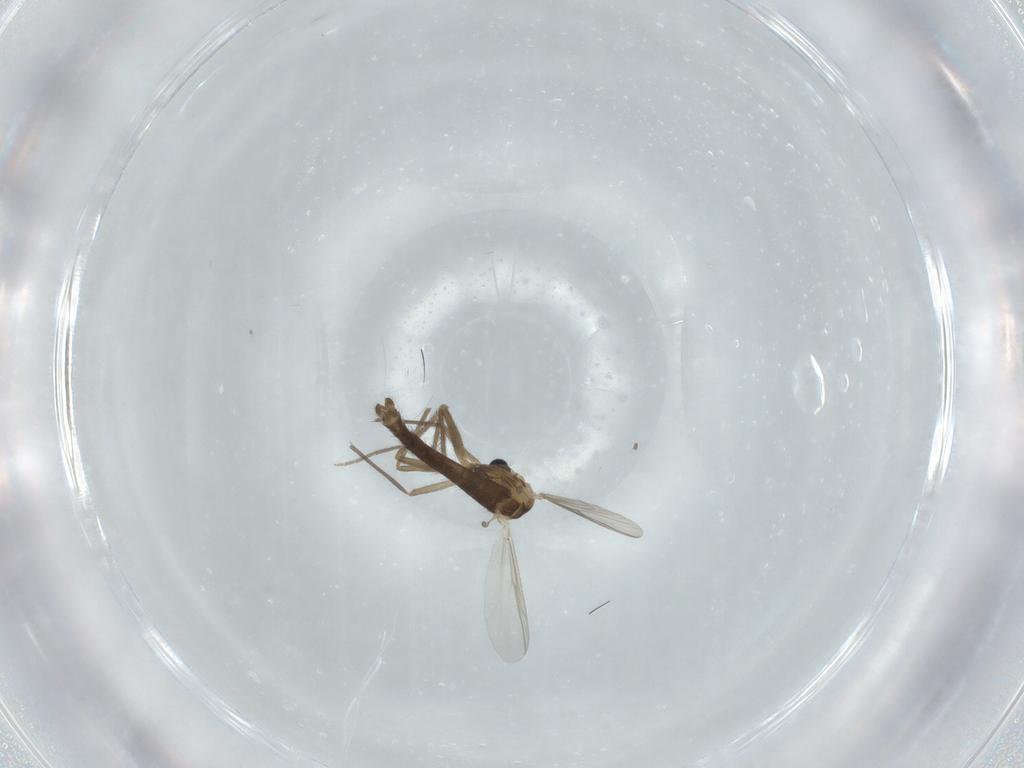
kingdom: Animalia
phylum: Arthropoda
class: Insecta
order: Diptera
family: Chironomidae
